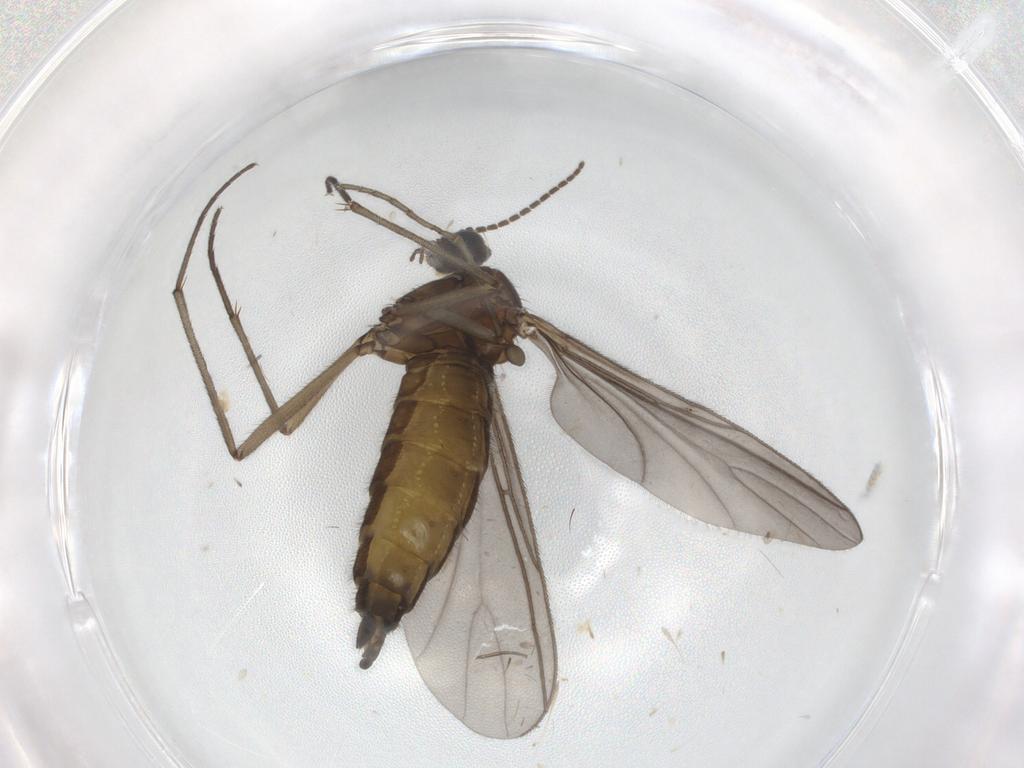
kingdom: Animalia
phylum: Arthropoda
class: Insecta
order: Diptera
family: Sciaridae
